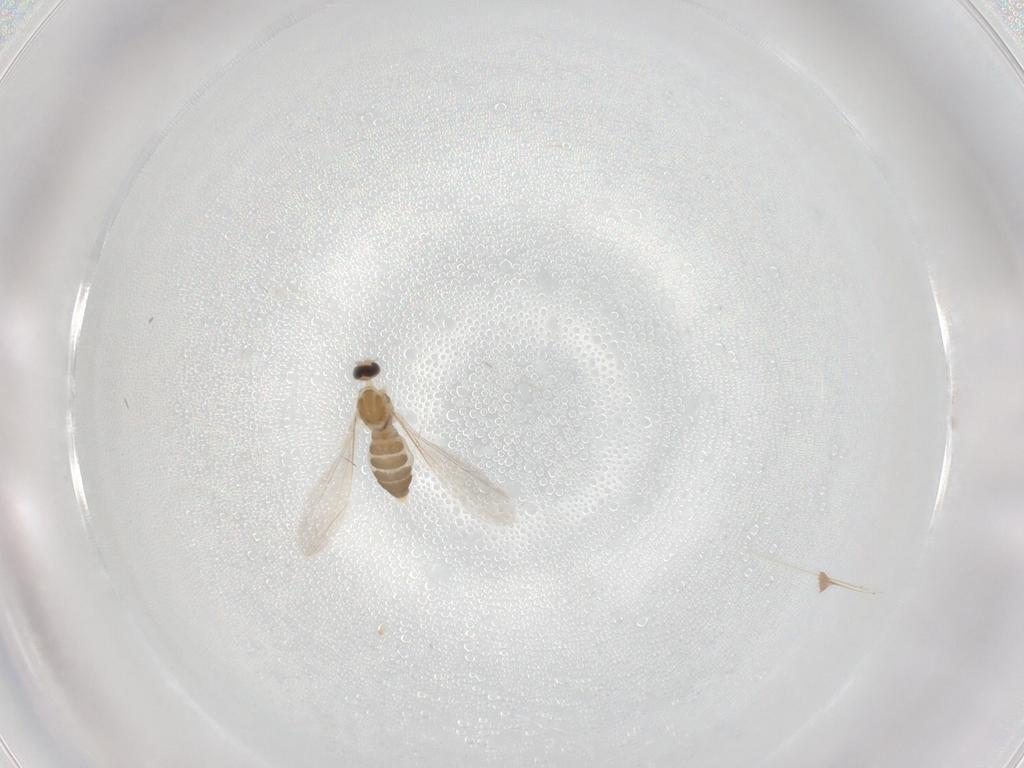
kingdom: Animalia
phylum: Arthropoda
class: Insecta
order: Diptera
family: Cecidomyiidae
